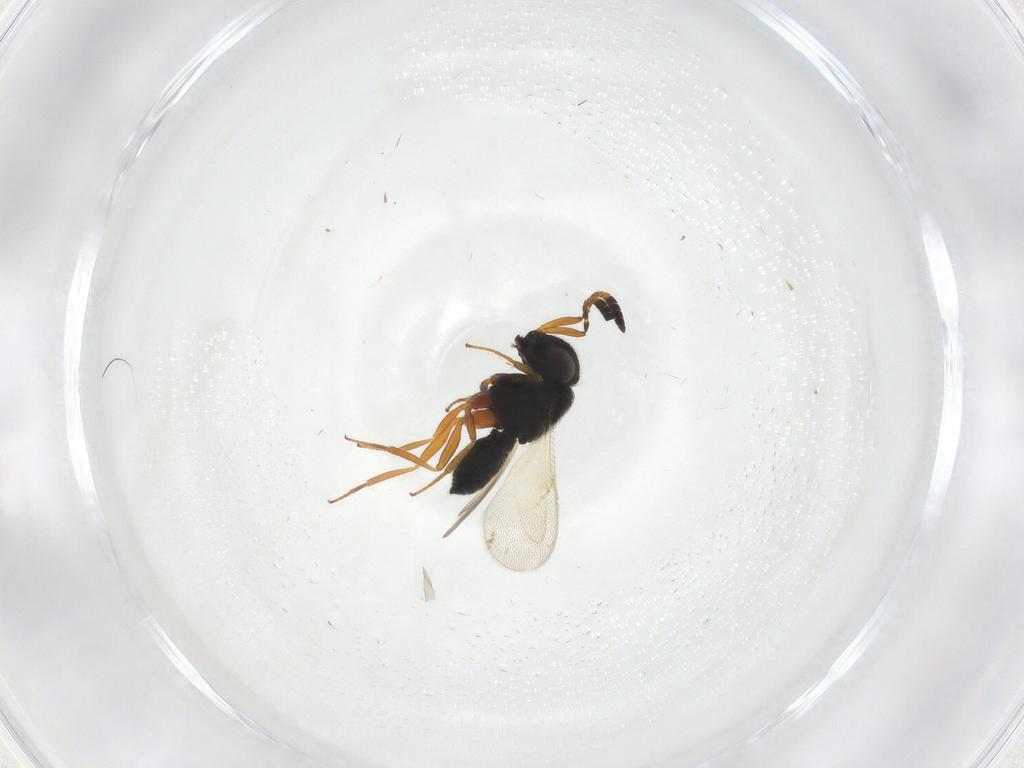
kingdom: Animalia
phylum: Arthropoda
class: Insecta
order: Hymenoptera
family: Scelionidae
